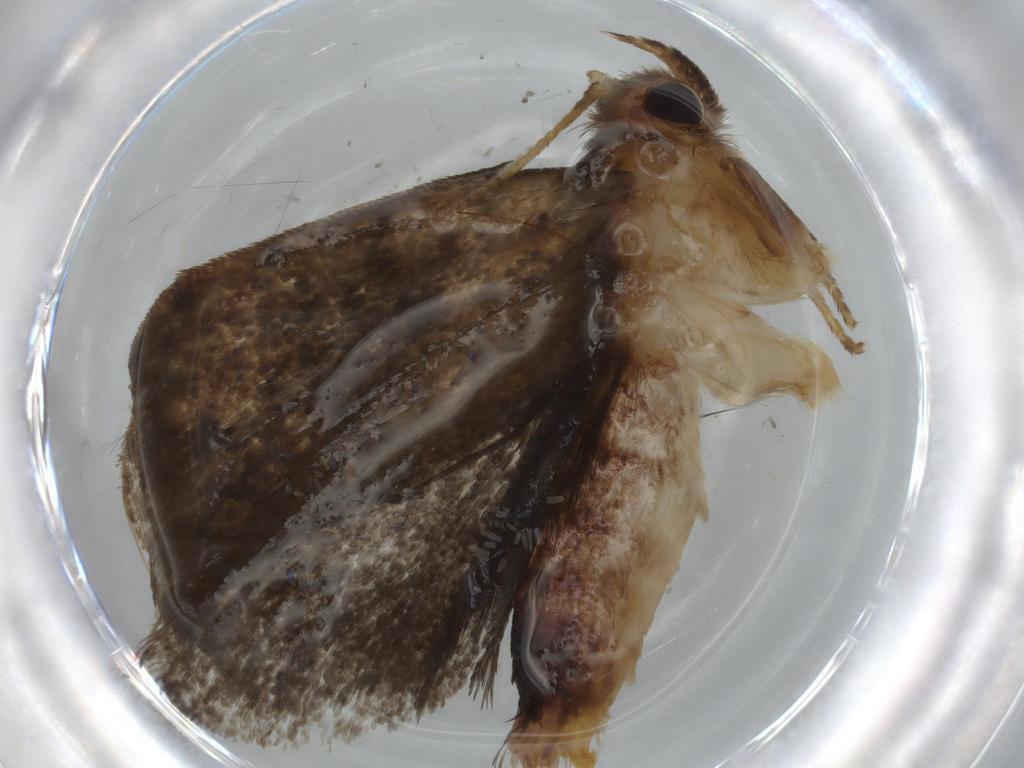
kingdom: Animalia
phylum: Arthropoda
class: Insecta
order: Lepidoptera
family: Tineidae
